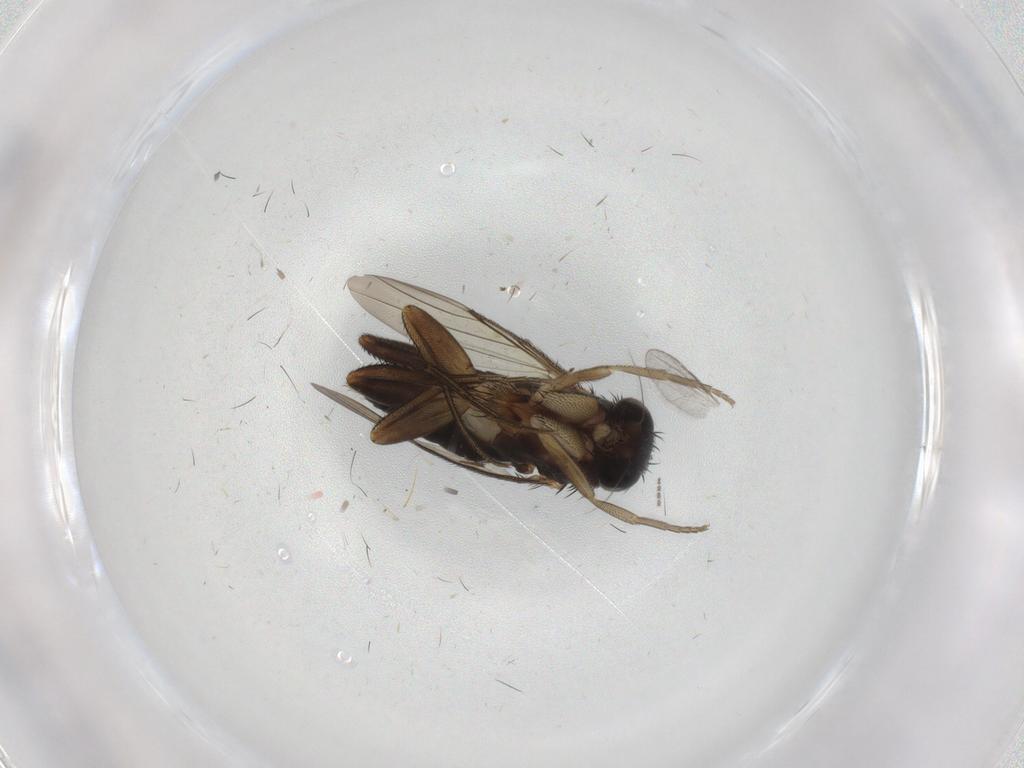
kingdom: Animalia
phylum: Arthropoda
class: Insecta
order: Diptera
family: Phoridae
